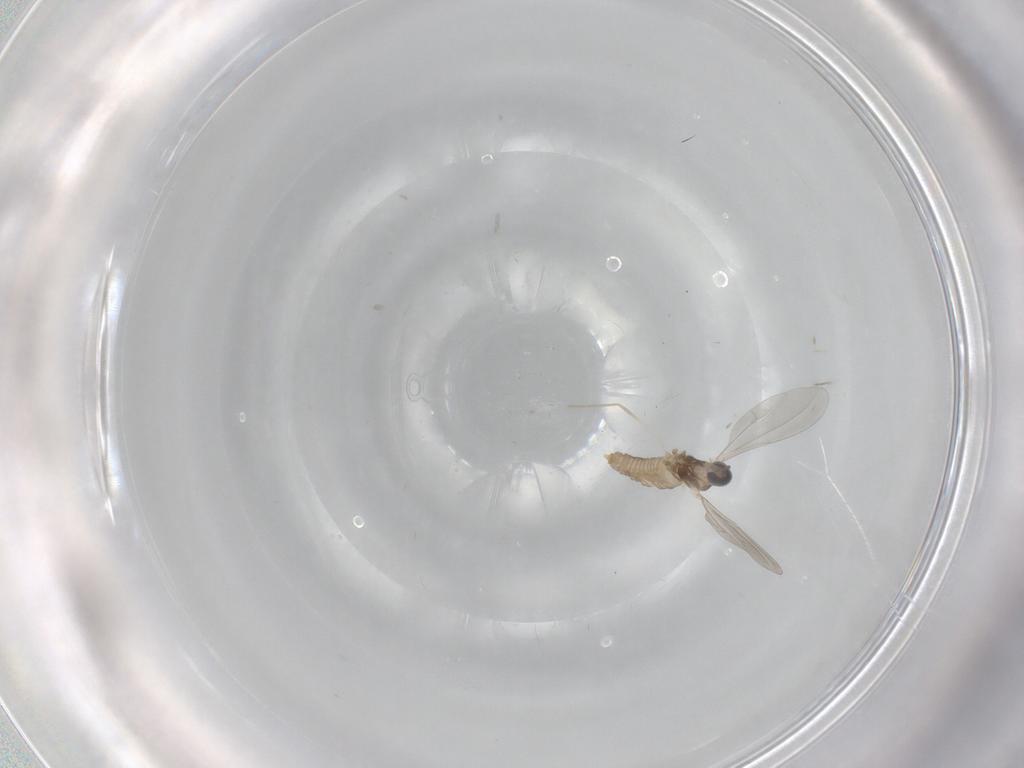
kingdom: Animalia
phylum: Arthropoda
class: Insecta
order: Diptera
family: Cecidomyiidae
